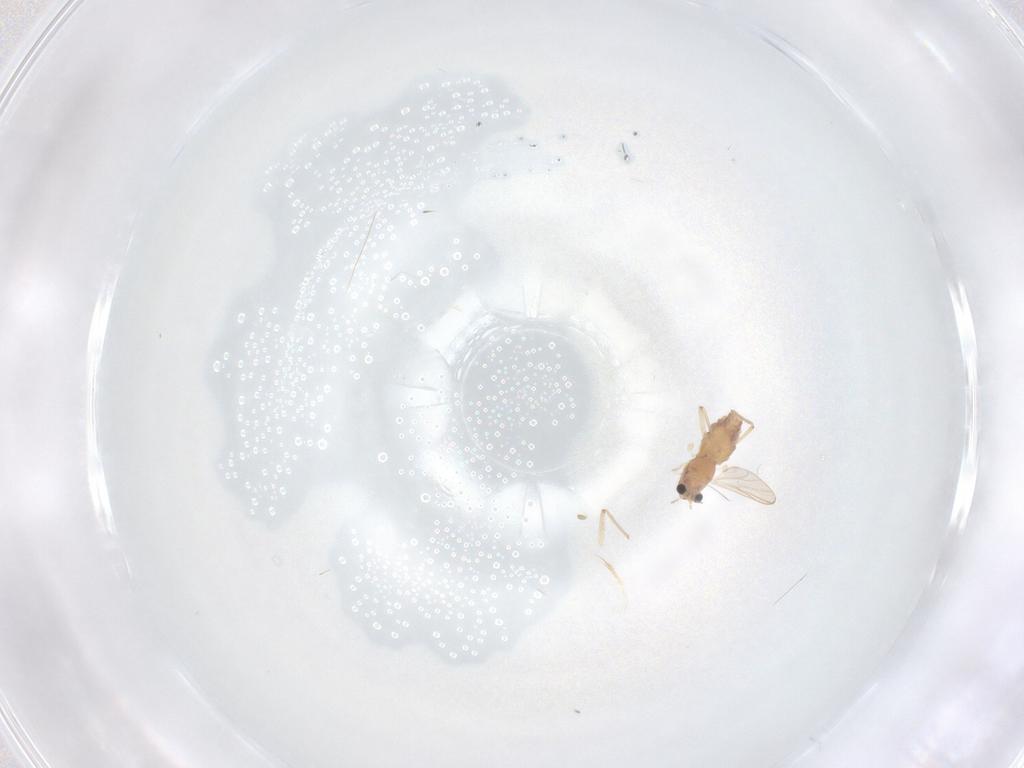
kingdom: Animalia
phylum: Arthropoda
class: Insecta
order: Diptera
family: Chironomidae
